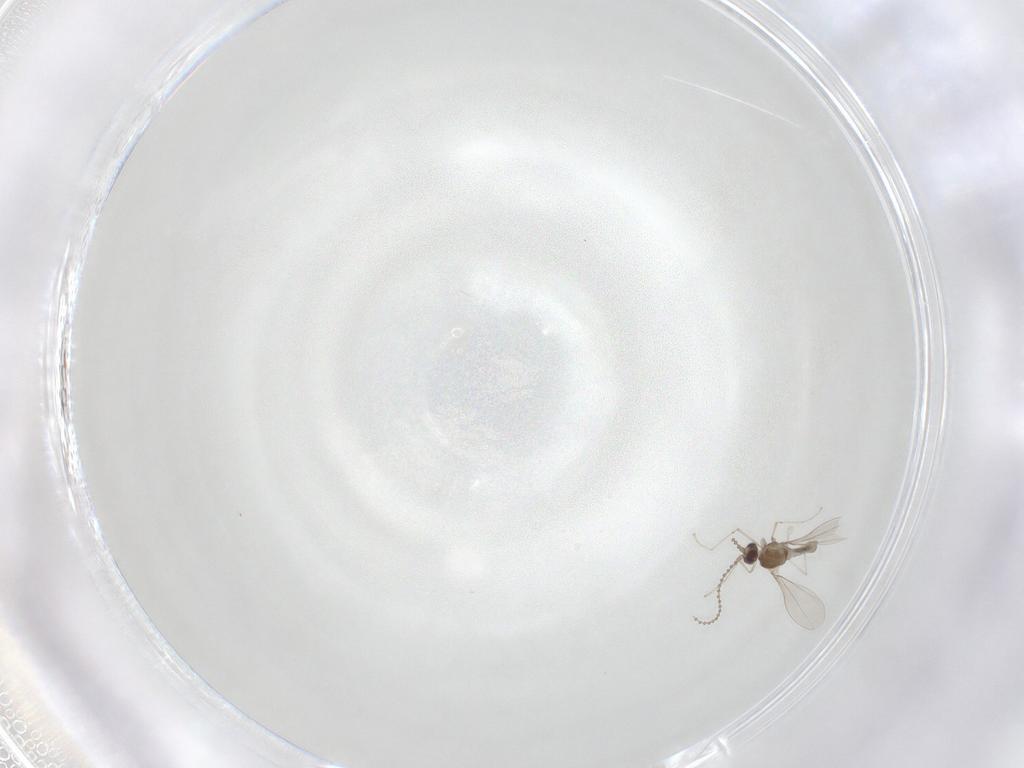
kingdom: Animalia
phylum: Arthropoda
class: Insecta
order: Diptera
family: Cecidomyiidae
